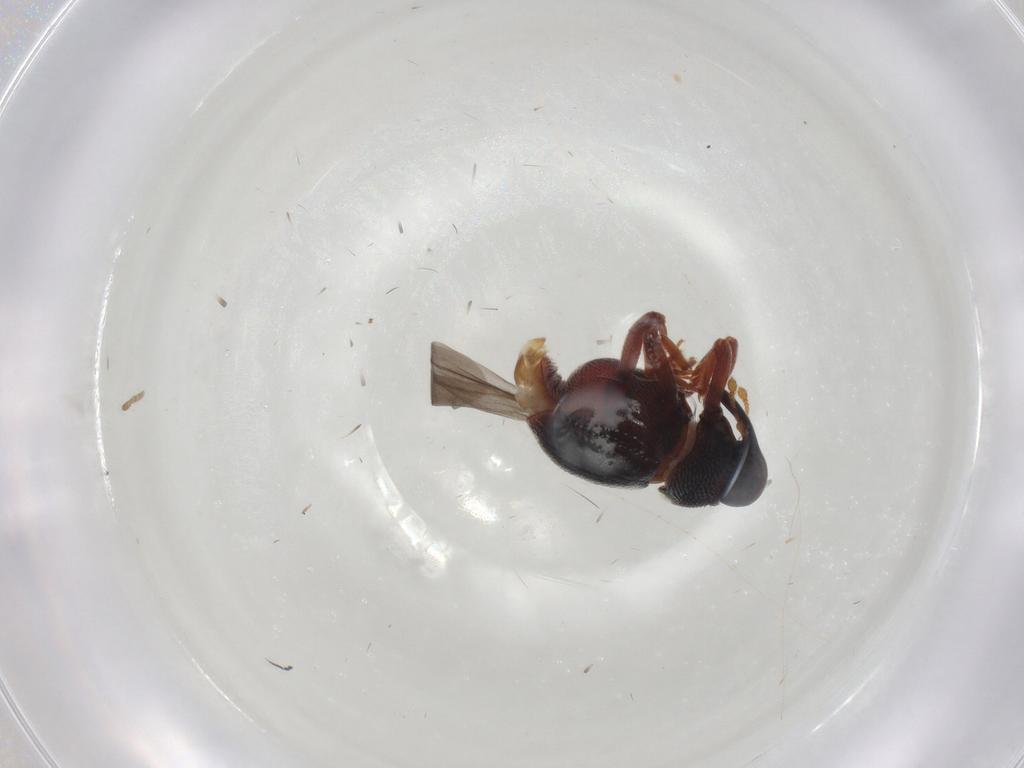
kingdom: Animalia
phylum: Arthropoda
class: Insecta
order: Coleoptera
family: Curculionidae
